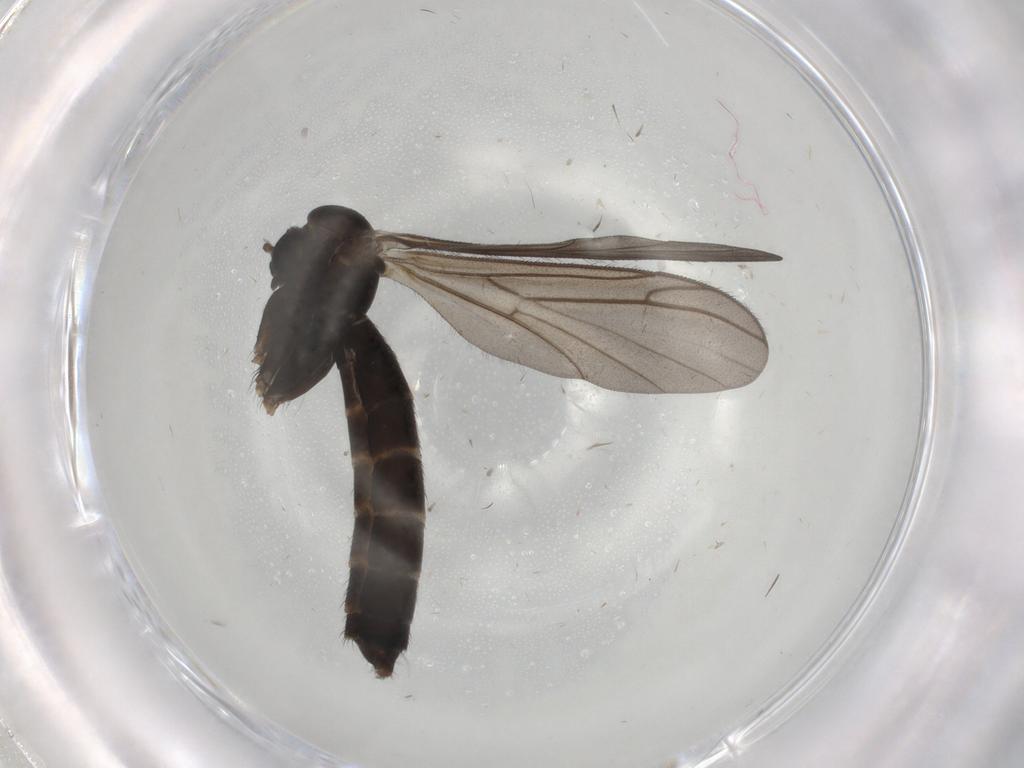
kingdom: Animalia
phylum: Arthropoda
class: Insecta
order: Diptera
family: Ditomyiidae
